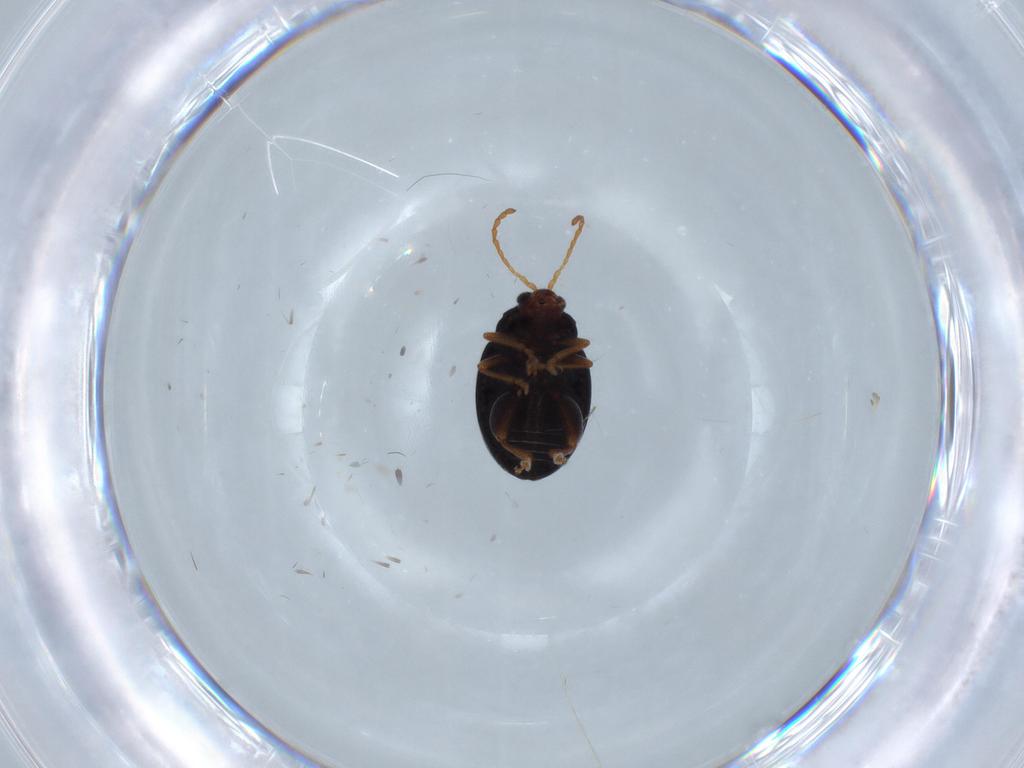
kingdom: Animalia
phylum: Arthropoda
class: Insecta
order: Coleoptera
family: Chrysomelidae
